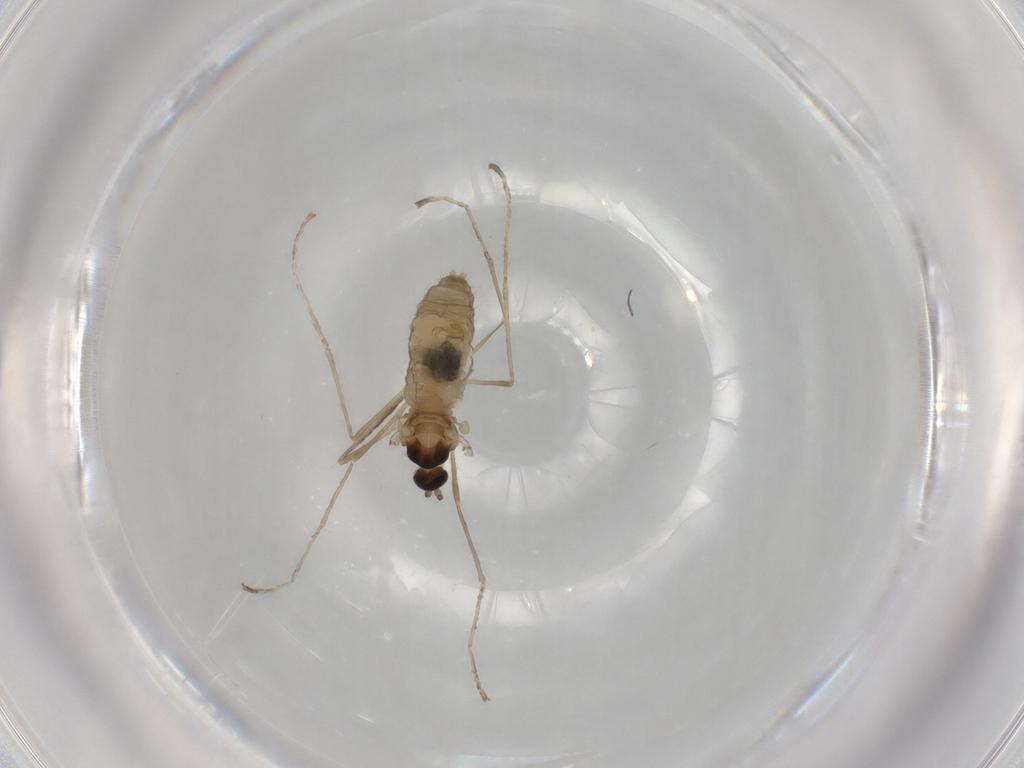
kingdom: Animalia
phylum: Arthropoda
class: Insecta
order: Diptera
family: Cecidomyiidae
